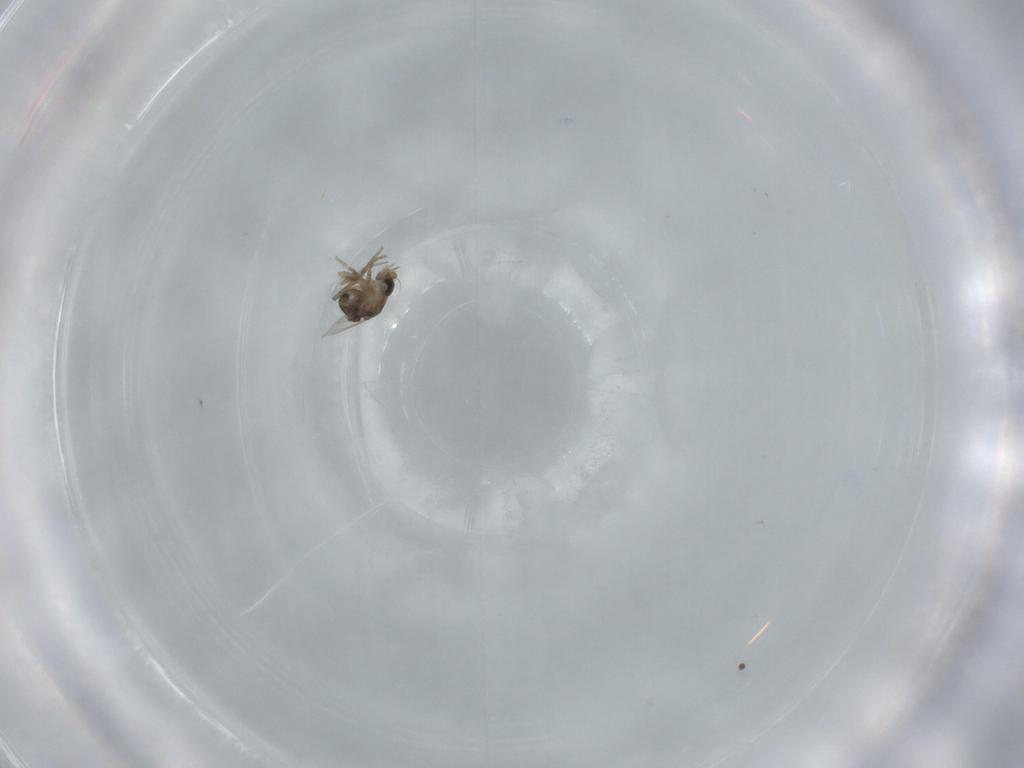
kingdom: Animalia
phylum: Arthropoda
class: Insecta
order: Diptera
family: Phoridae
